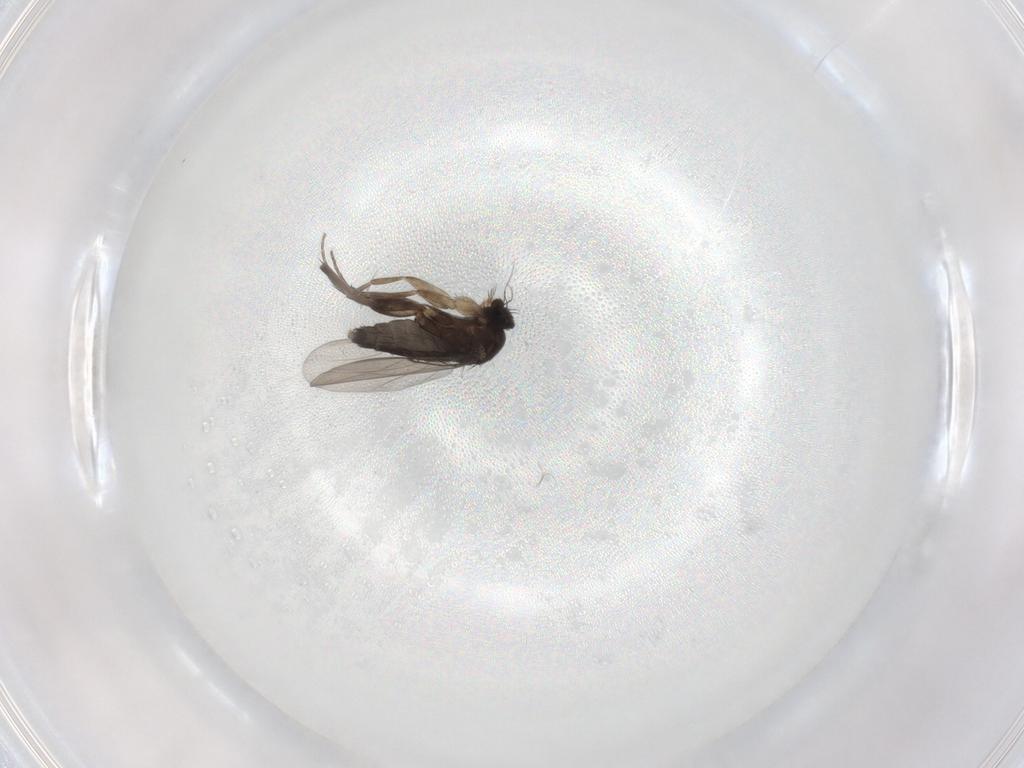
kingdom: Animalia
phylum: Arthropoda
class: Insecta
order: Diptera
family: Phoridae
